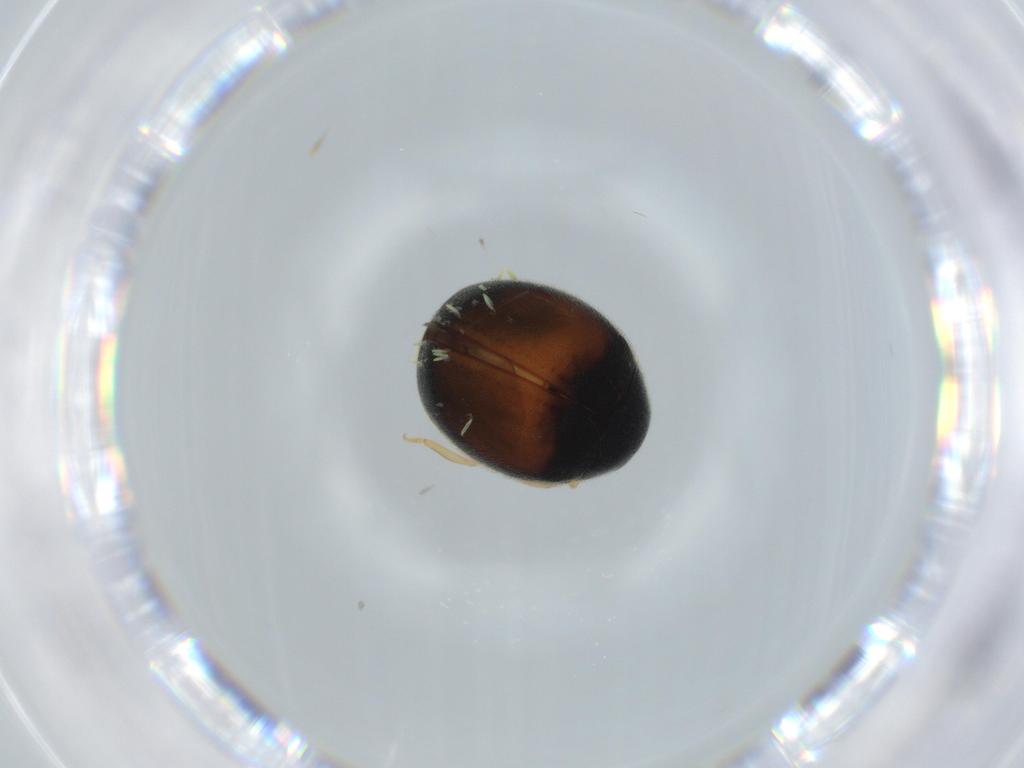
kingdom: Animalia
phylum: Arthropoda
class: Insecta
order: Coleoptera
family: Coccinellidae
